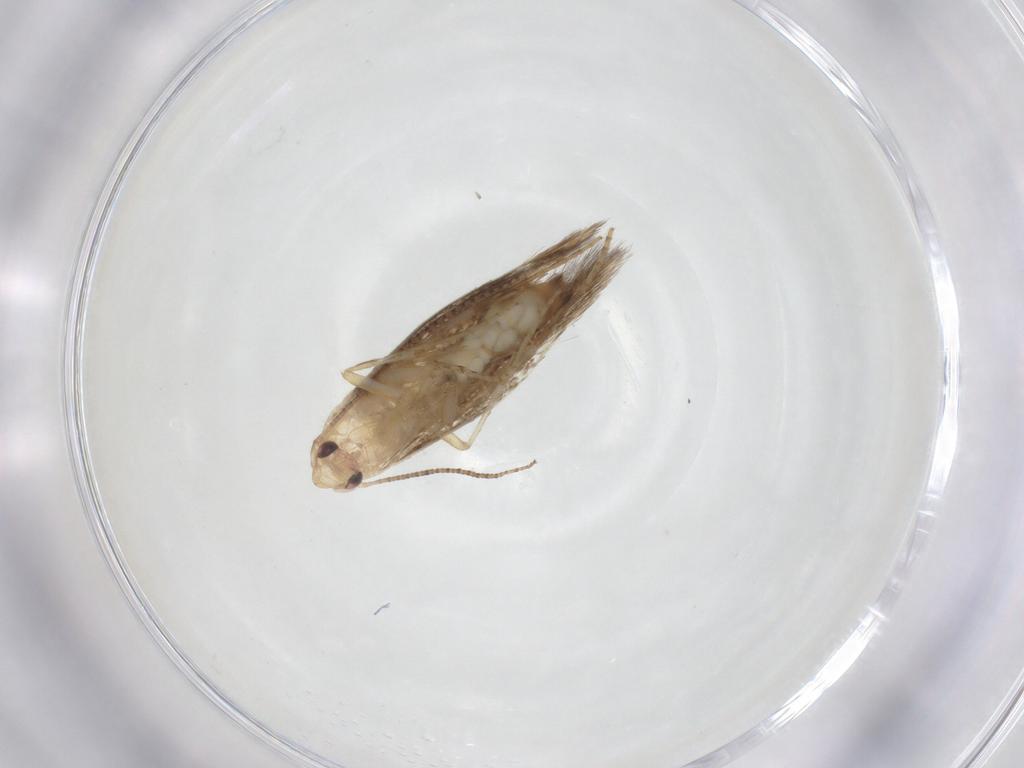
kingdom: Animalia
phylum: Arthropoda
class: Insecta
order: Lepidoptera
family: Bucculatricidae
